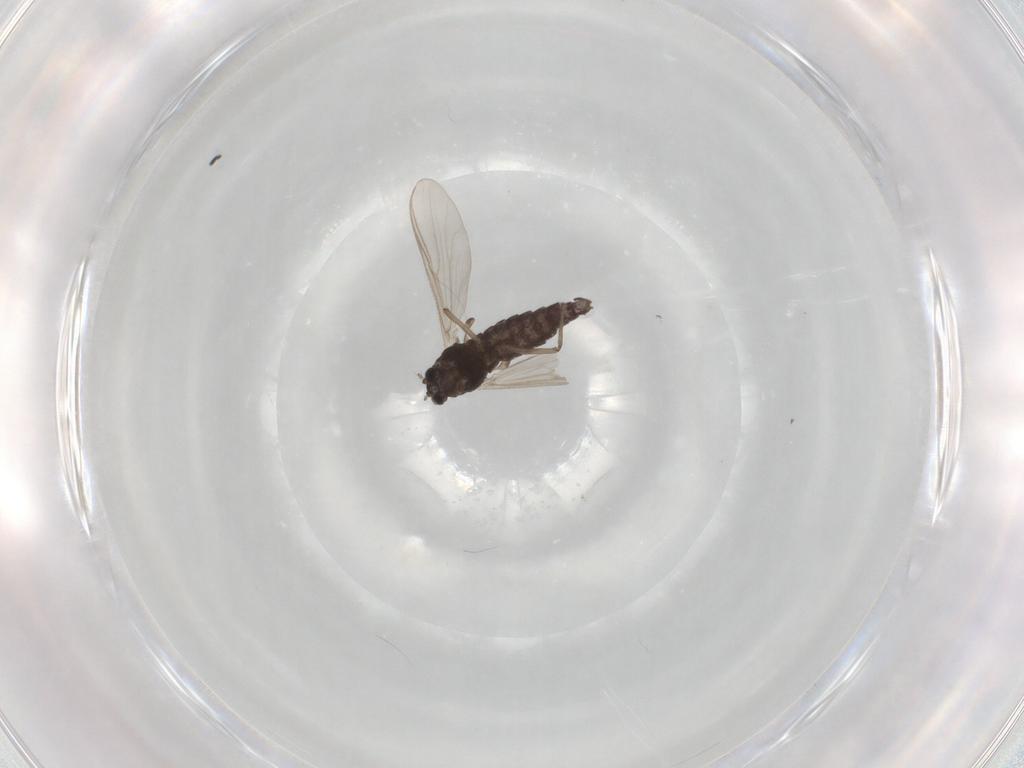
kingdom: Animalia
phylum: Arthropoda
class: Insecta
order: Diptera
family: Chironomidae
